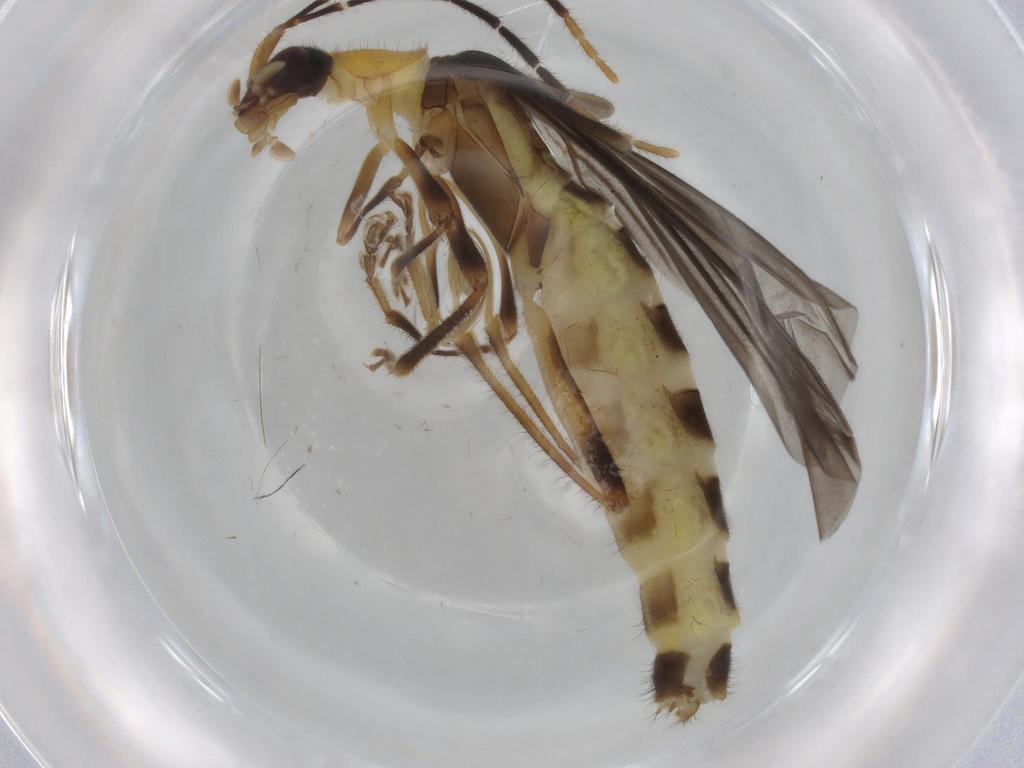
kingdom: Animalia
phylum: Arthropoda
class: Insecta
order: Coleoptera
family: Cantharidae
